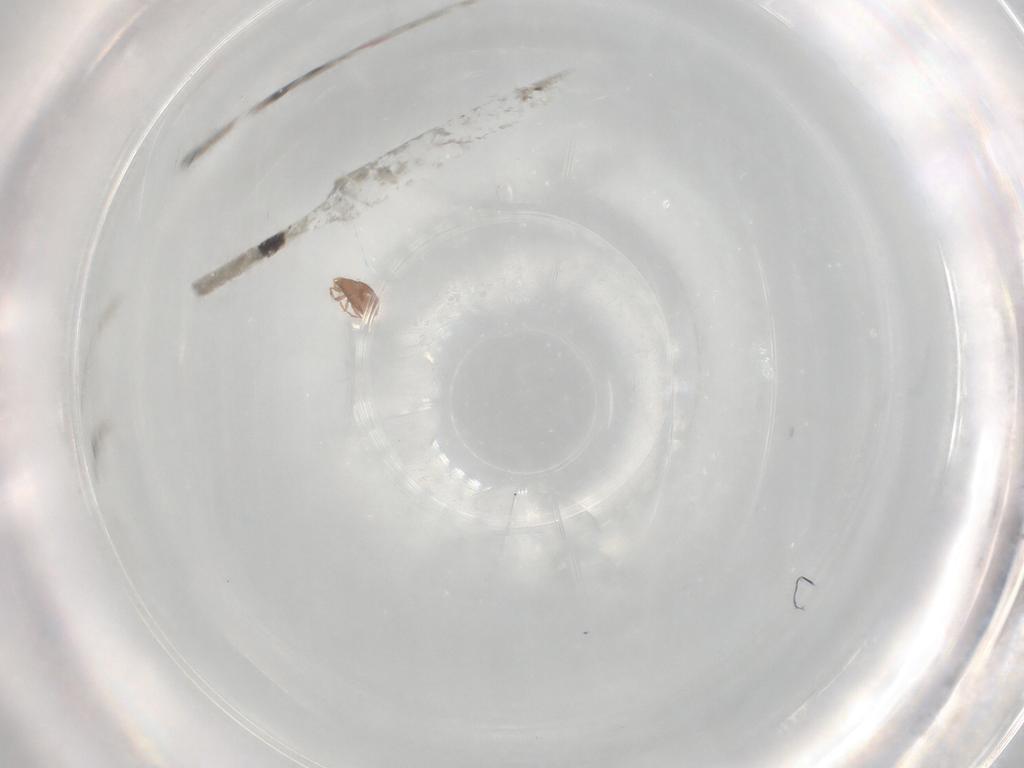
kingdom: Animalia
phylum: Arthropoda
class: Arachnida
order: Sarcoptiformes
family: Oribatulidae
